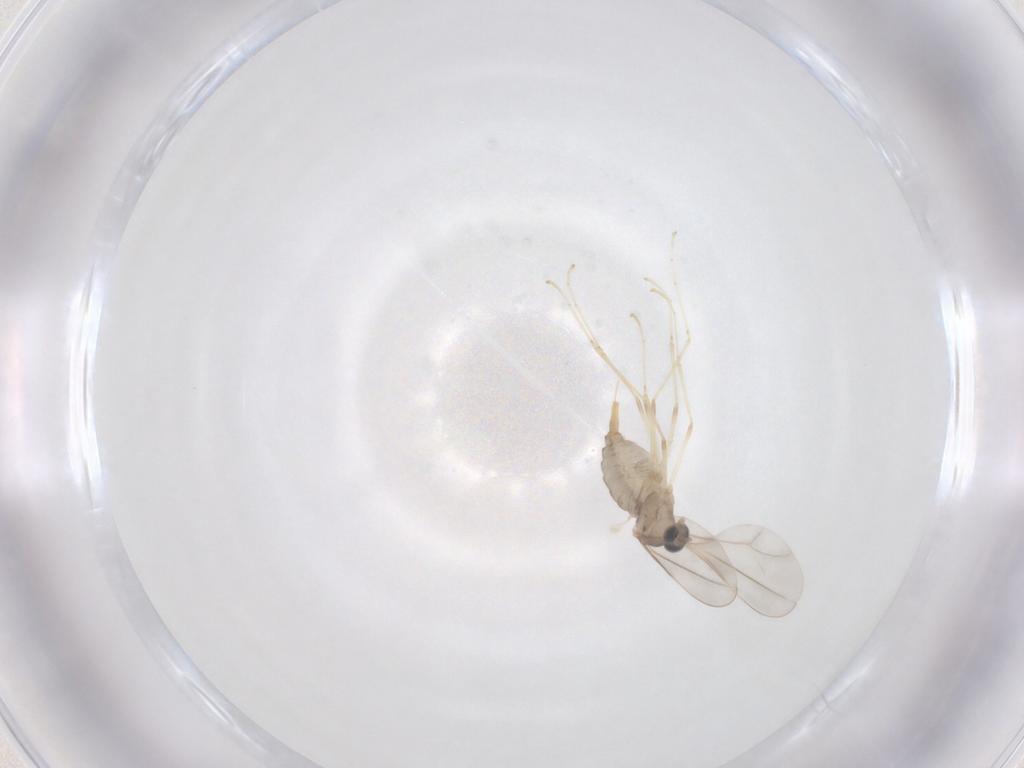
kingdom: Animalia
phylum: Arthropoda
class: Insecta
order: Diptera
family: Cecidomyiidae
